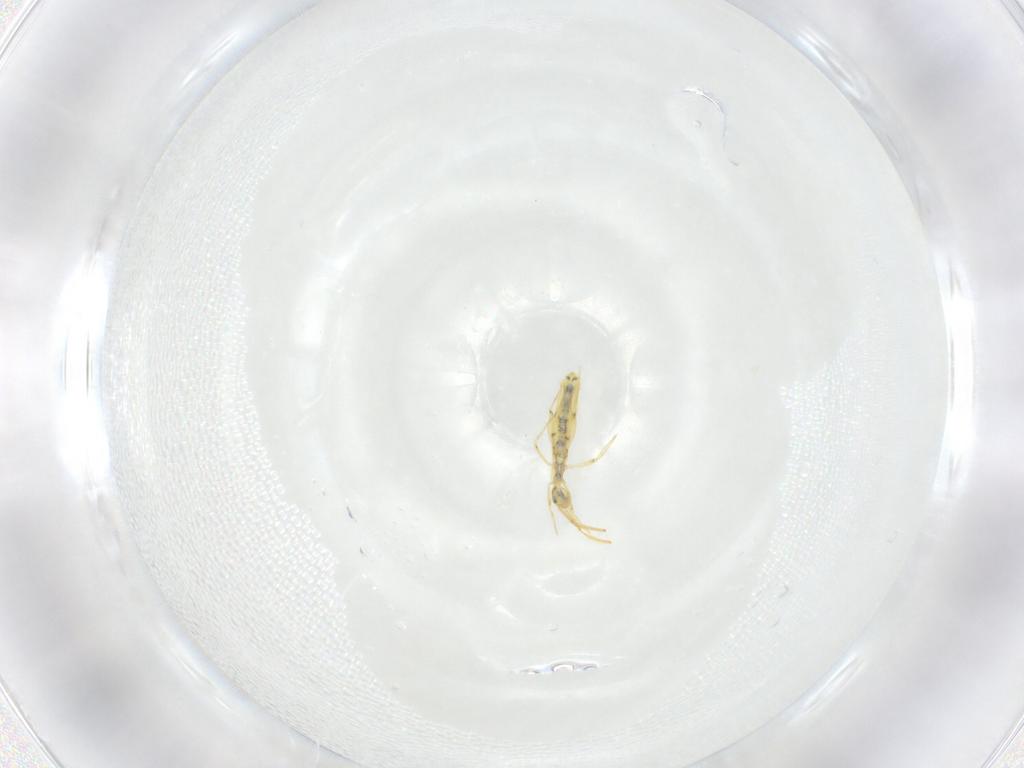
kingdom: Animalia
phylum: Arthropoda
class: Collembola
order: Entomobryomorpha
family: Entomobryidae
